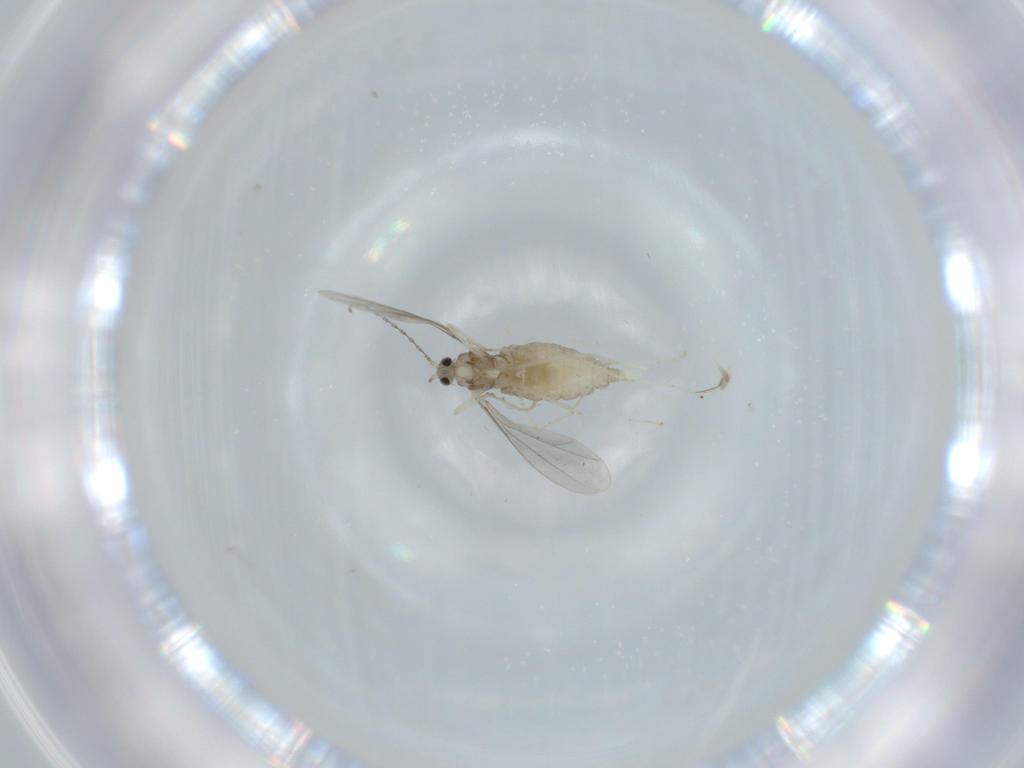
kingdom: Animalia
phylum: Arthropoda
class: Insecta
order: Diptera
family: Cecidomyiidae
